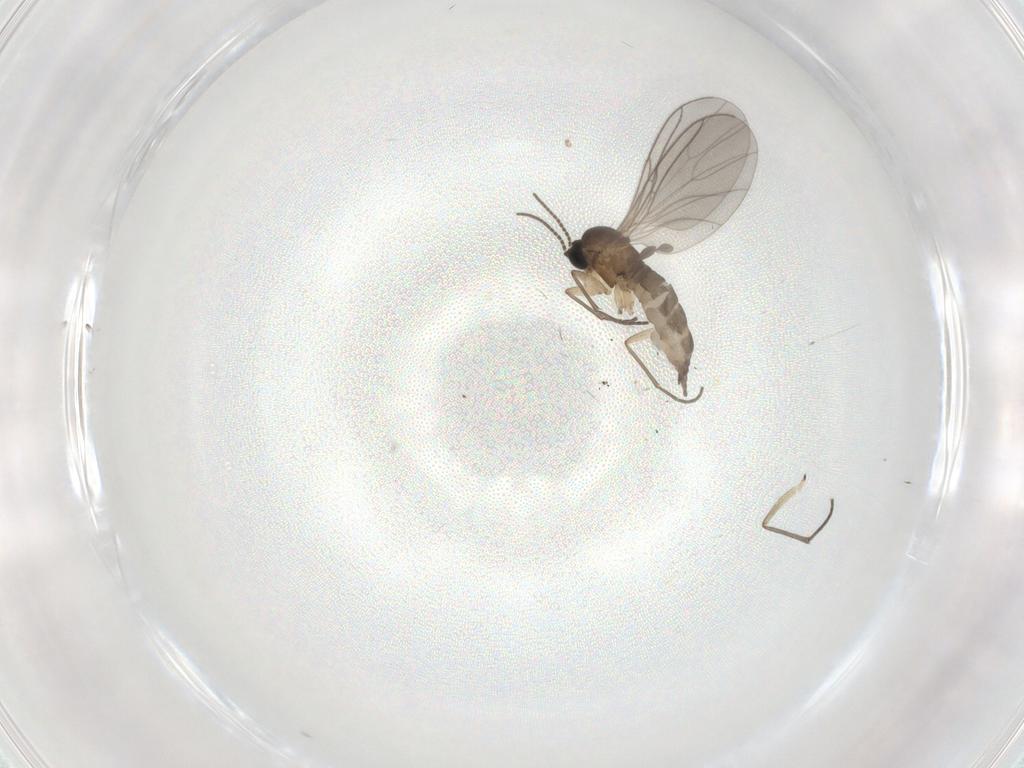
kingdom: Animalia
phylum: Arthropoda
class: Insecta
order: Diptera
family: Sciaridae
